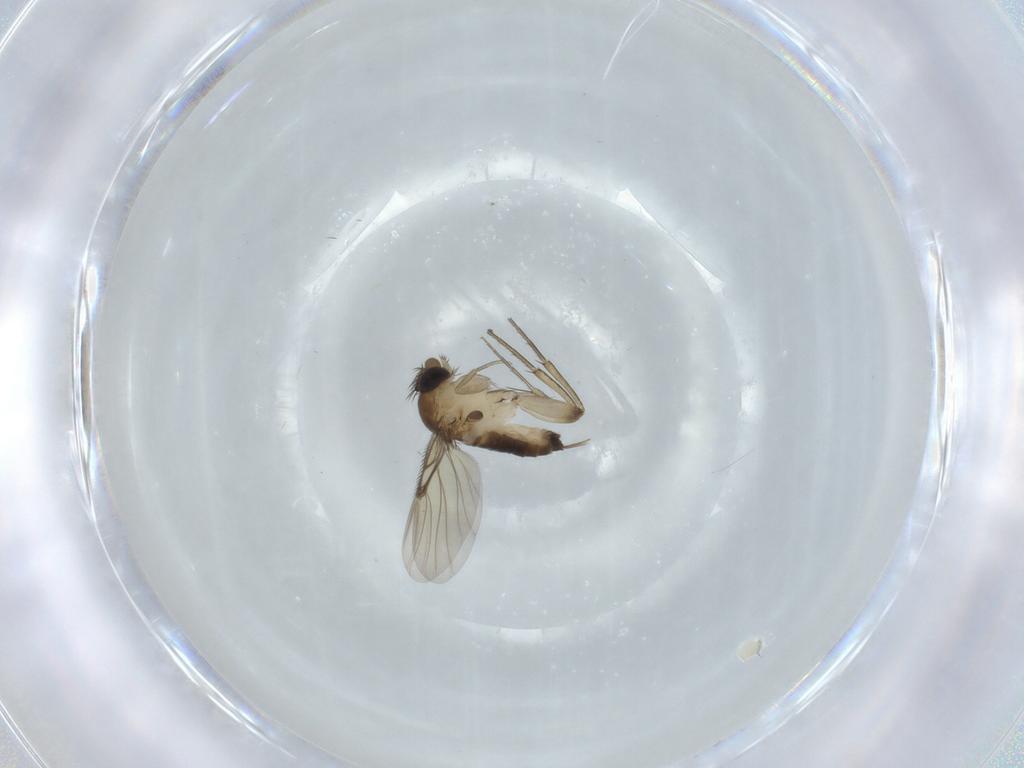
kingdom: Animalia
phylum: Arthropoda
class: Insecta
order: Diptera
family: Phoridae
